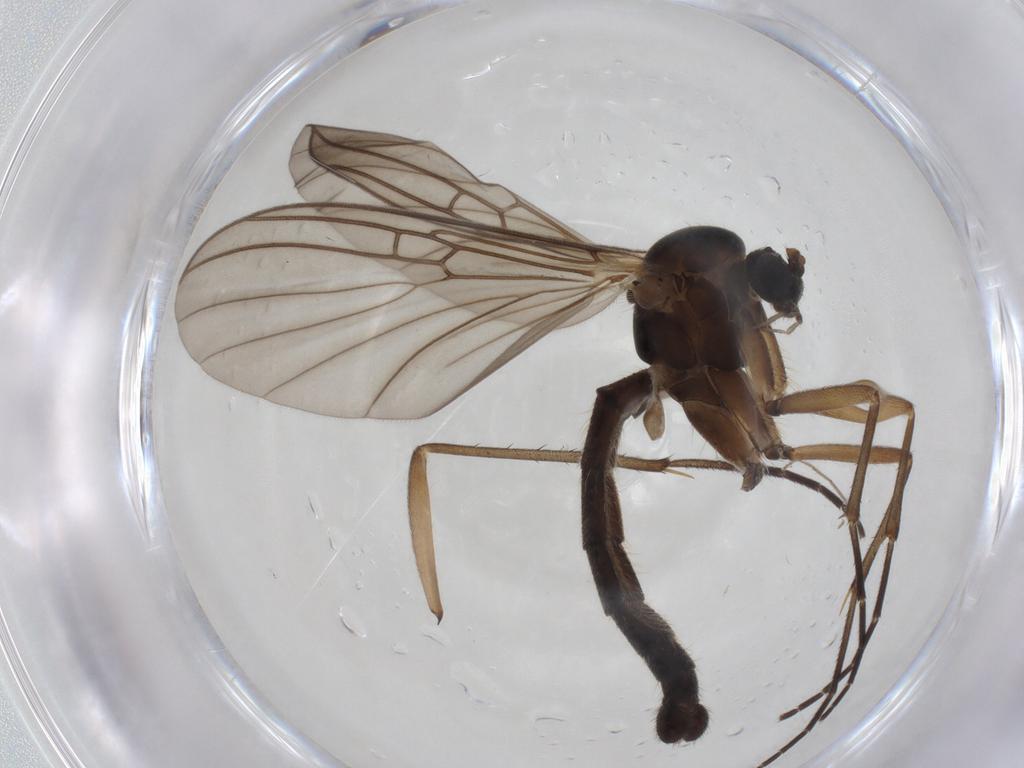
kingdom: Animalia
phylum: Arthropoda
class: Insecta
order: Diptera
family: Mycetophilidae
